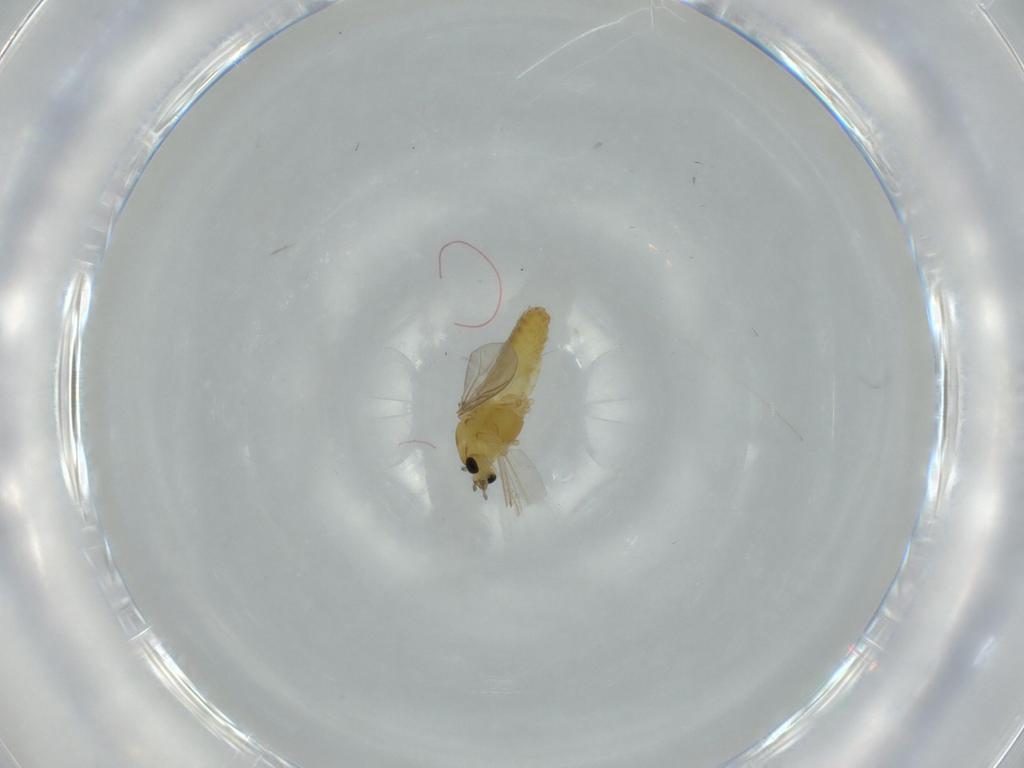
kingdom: Animalia
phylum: Arthropoda
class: Insecta
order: Diptera
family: Chironomidae
